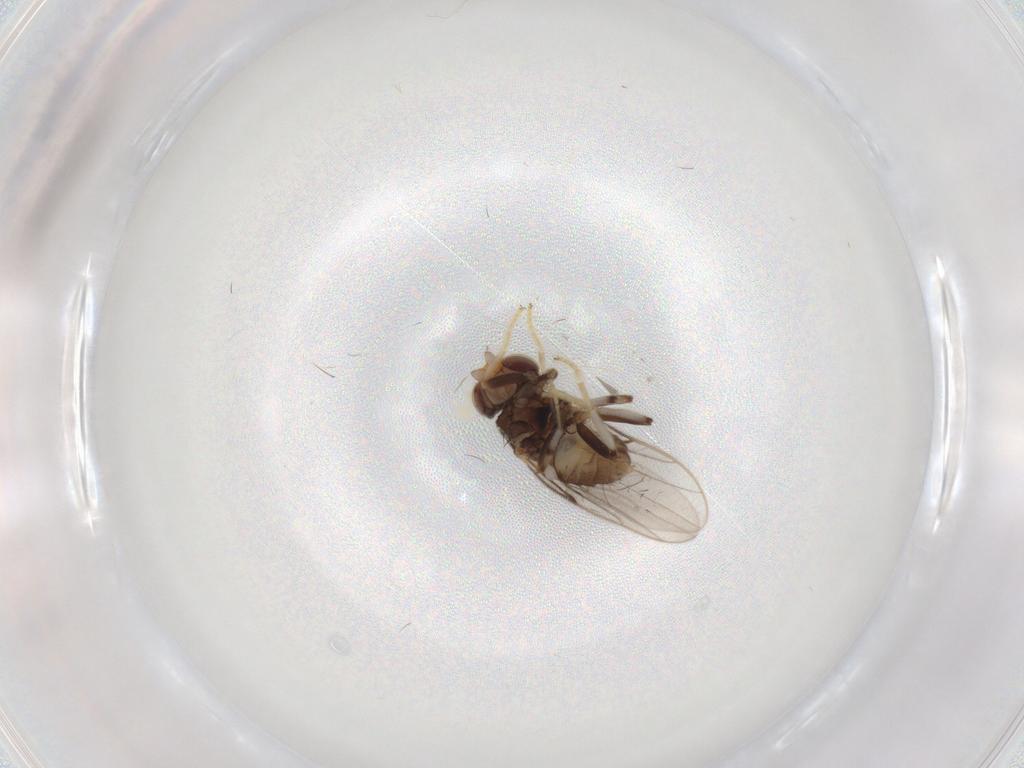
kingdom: Animalia
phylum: Arthropoda
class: Insecta
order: Diptera
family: Chloropidae
